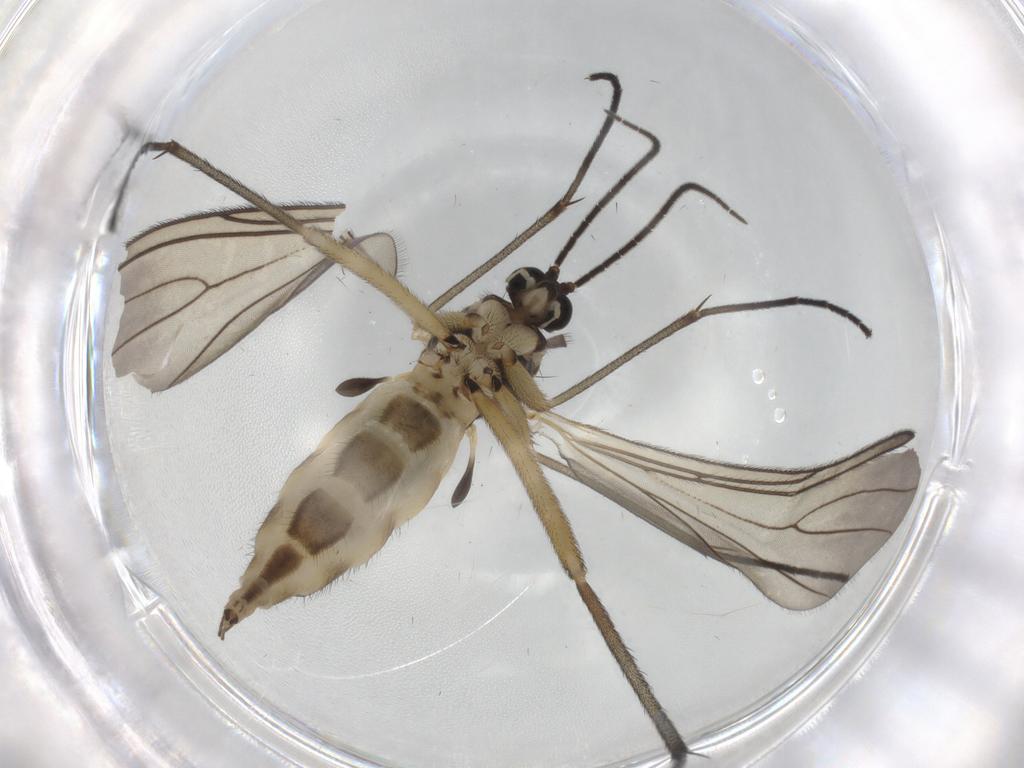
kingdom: Animalia
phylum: Arthropoda
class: Insecta
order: Diptera
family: Sciaridae
